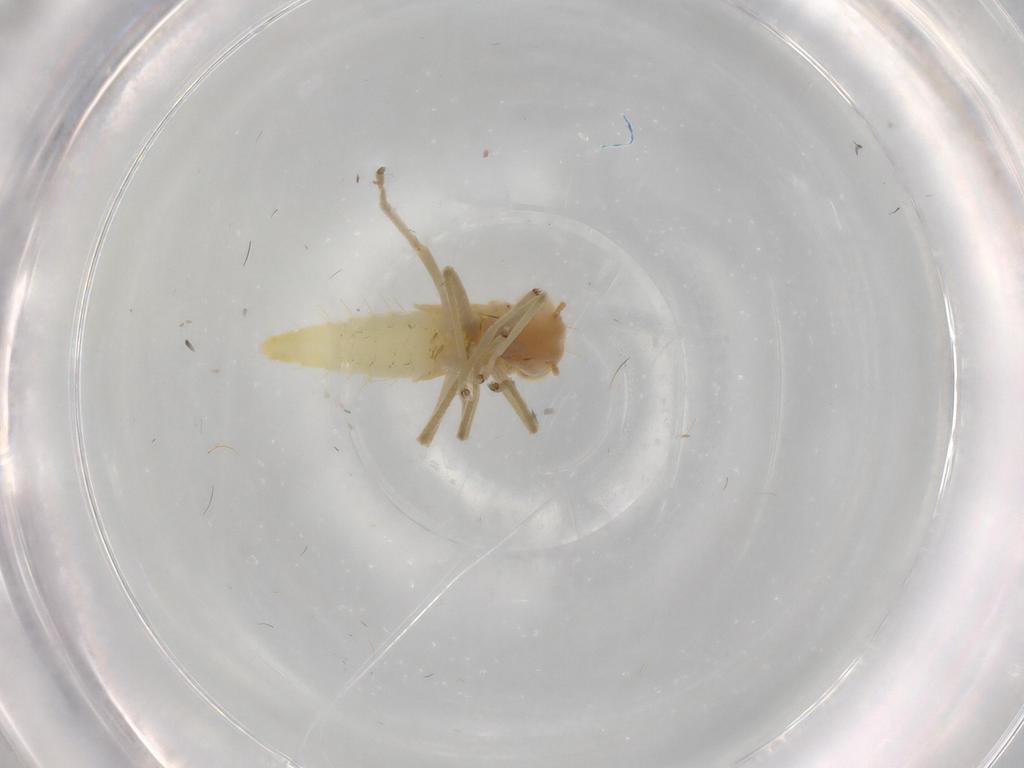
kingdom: Animalia
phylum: Arthropoda
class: Insecta
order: Hemiptera
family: Cicadellidae
